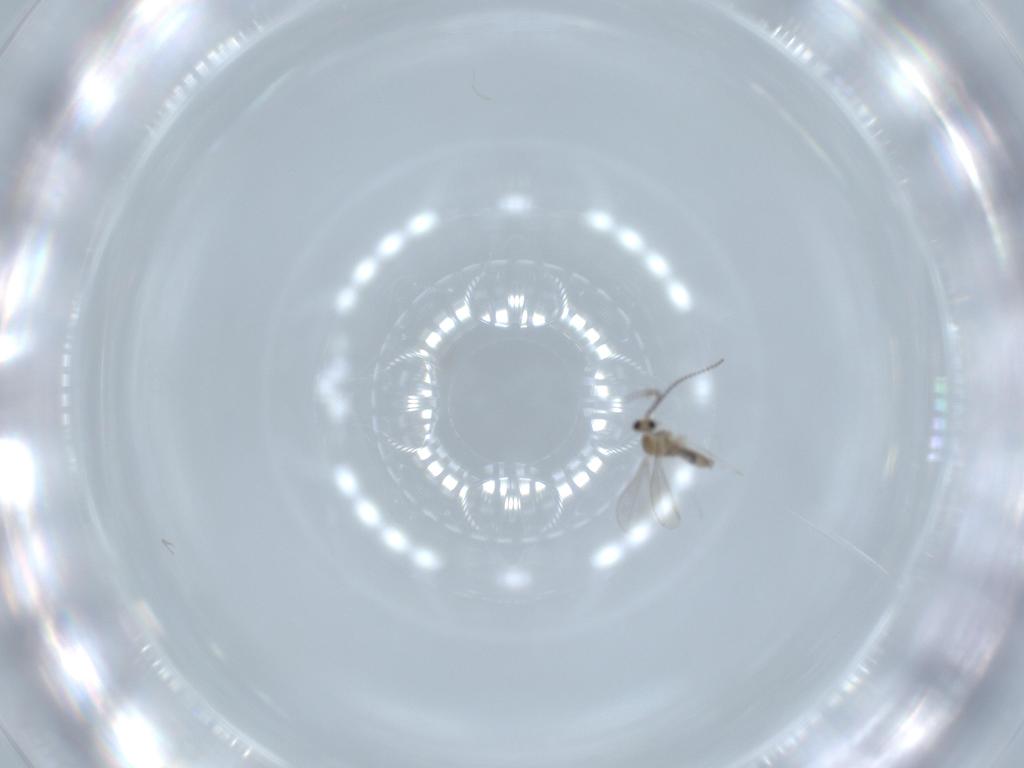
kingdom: Animalia
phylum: Arthropoda
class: Insecta
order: Diptera
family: Cecidomyiidae
